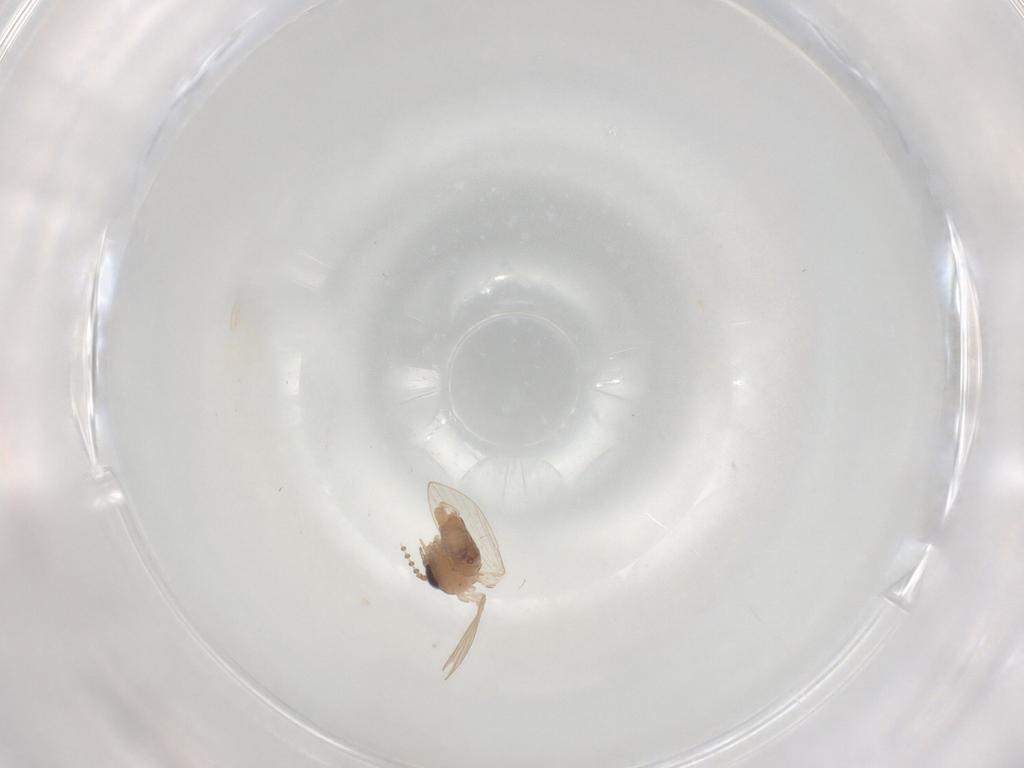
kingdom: Animalia
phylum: Arthropoda
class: Insecta
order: Diptera
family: Psychodidae
